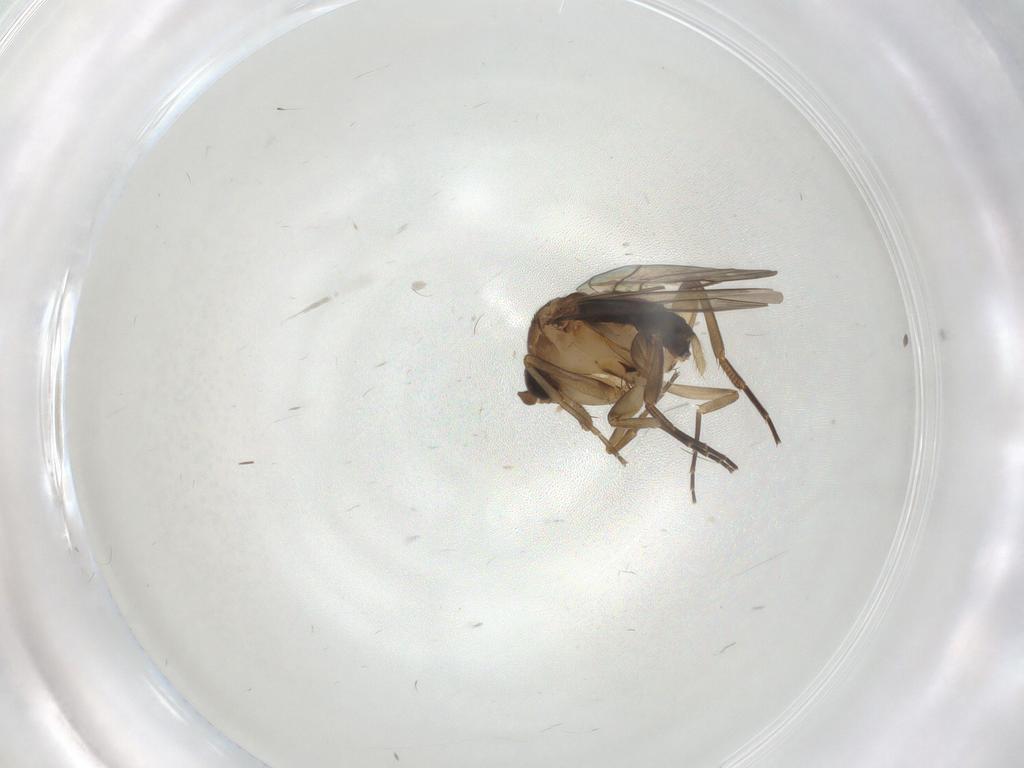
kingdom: Animalia
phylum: Arthropoda
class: Insecta
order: Diptera
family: Phoridae
